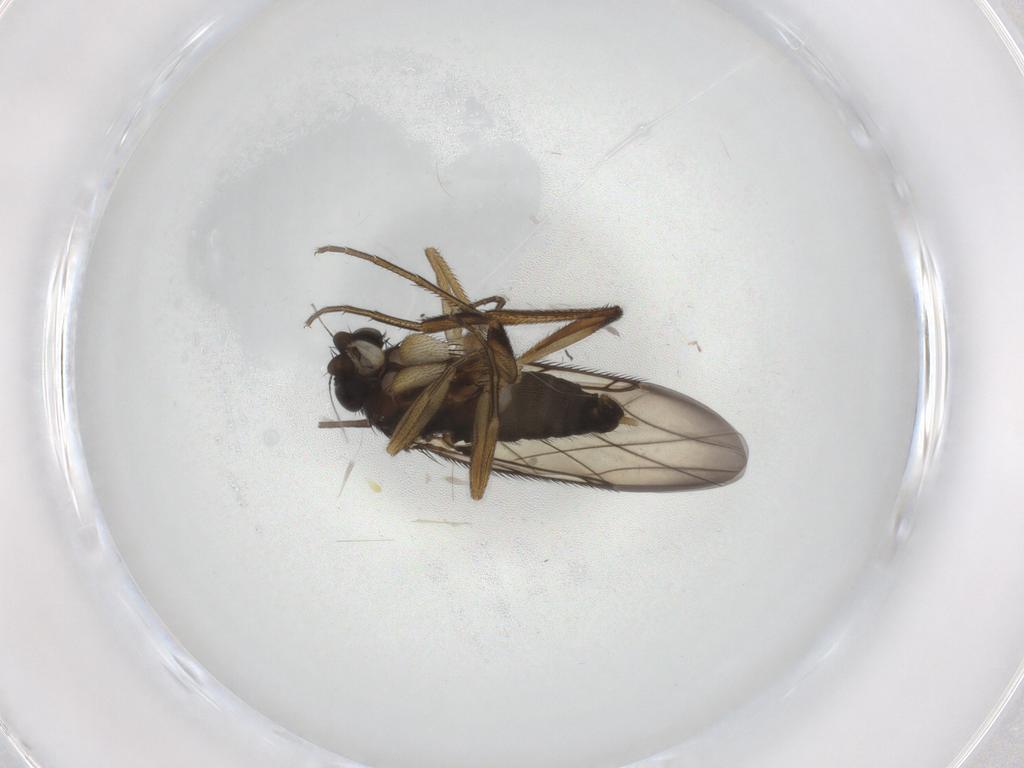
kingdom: Animalia
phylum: Arthropoda
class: Insecta
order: Diptera
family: Phoridae
